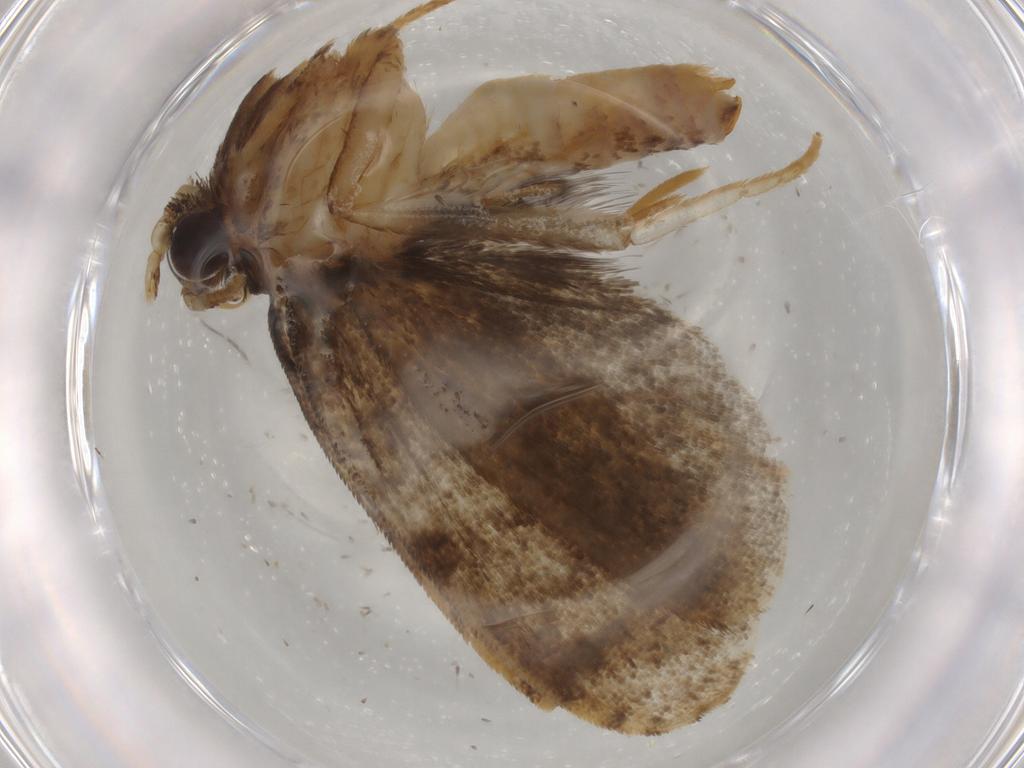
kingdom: Animalia
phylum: Arthropoda
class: Insecta
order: Lepidoptera
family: Tineidae
